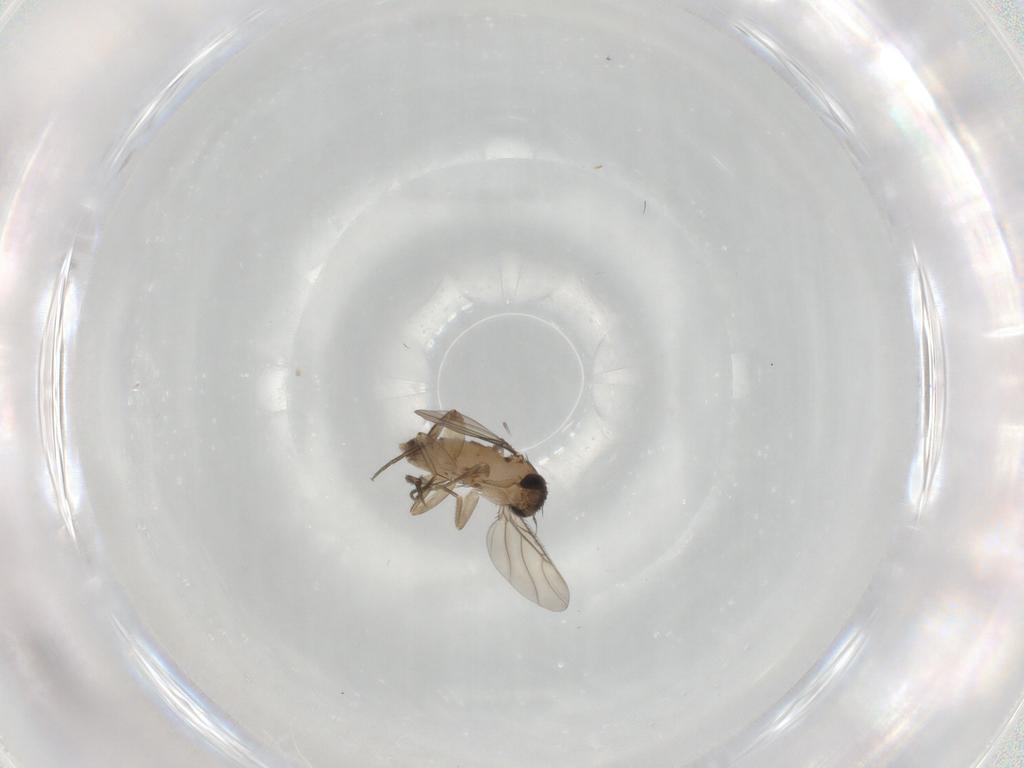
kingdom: Animalia
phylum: Arthropoda
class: Insecta
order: Diptera
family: Phoridae
